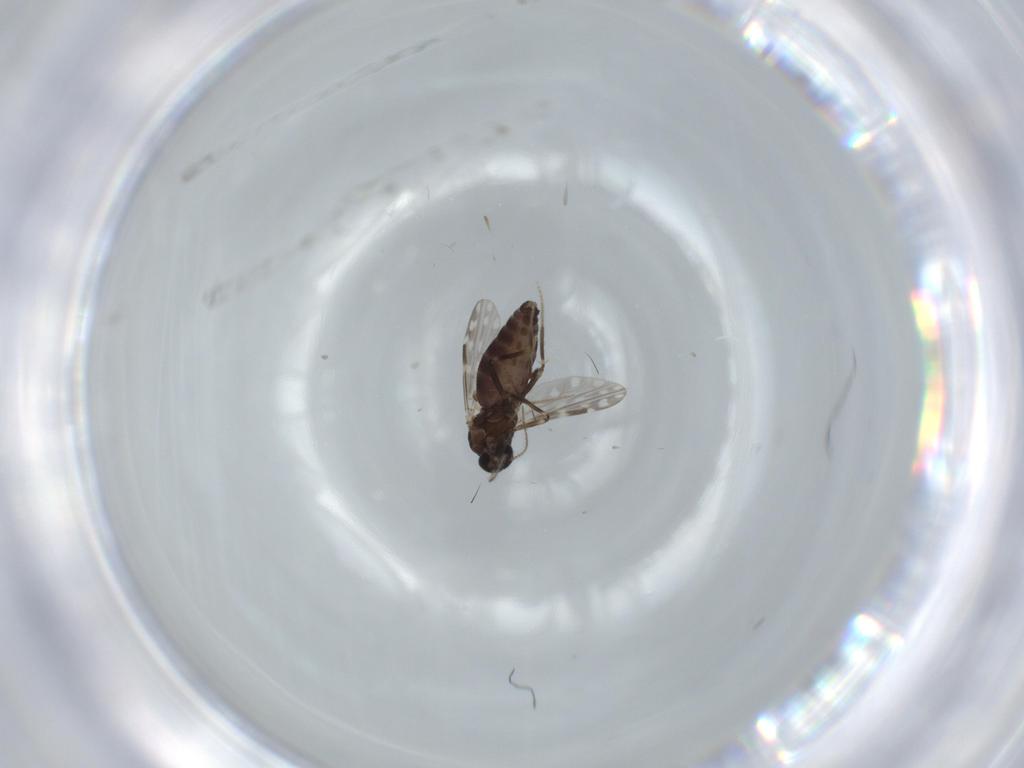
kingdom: Animalia
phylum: Arthropoda
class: Insecta
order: Diptera
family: Ceratopogonidae
